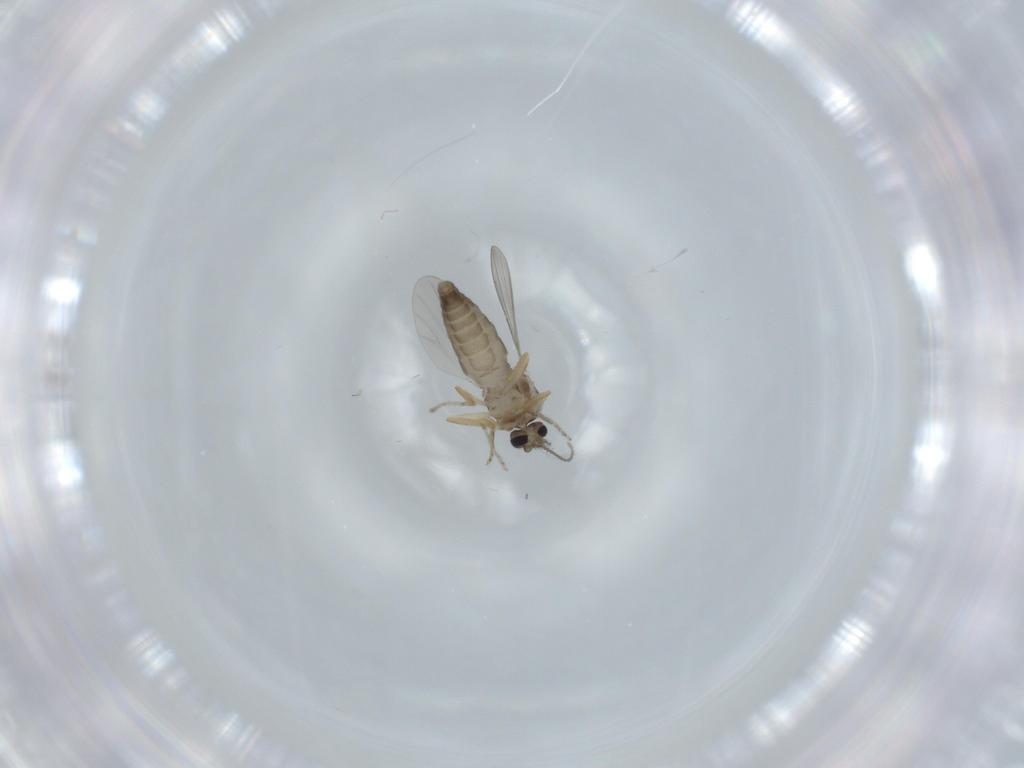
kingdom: Animalia
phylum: Arthropoda
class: Insecta
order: Diptera
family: Ceratopogonidae
